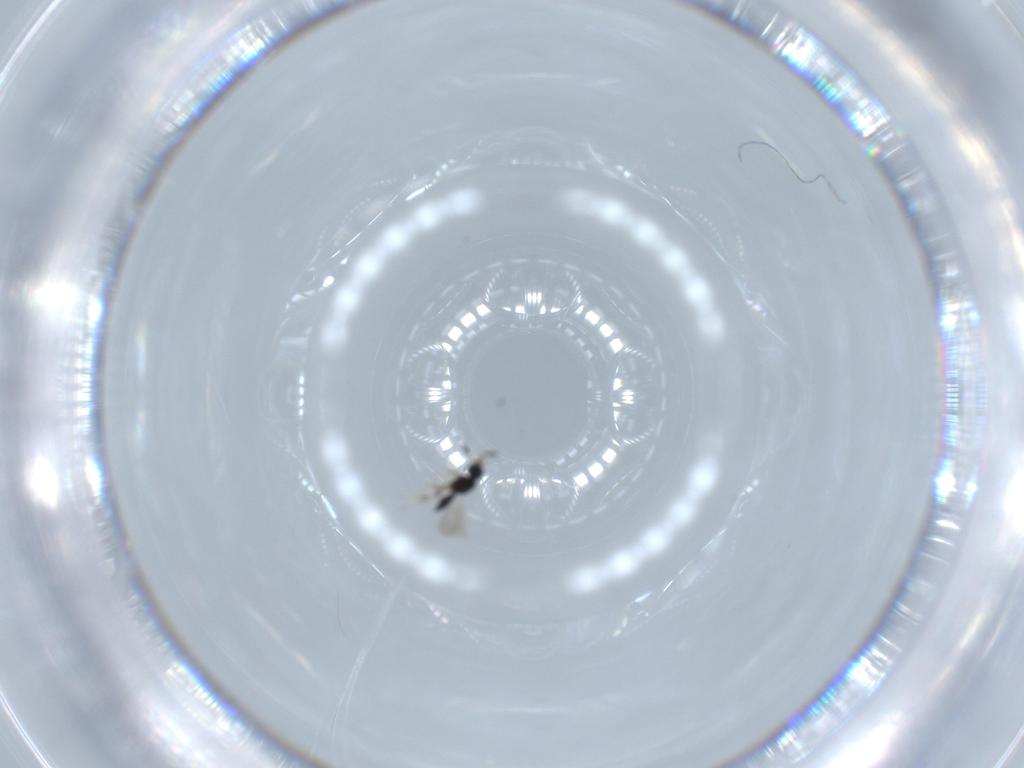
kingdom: Animalia
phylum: Arthropoda
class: Insecta
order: Hymenoptera
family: Scelionidae
